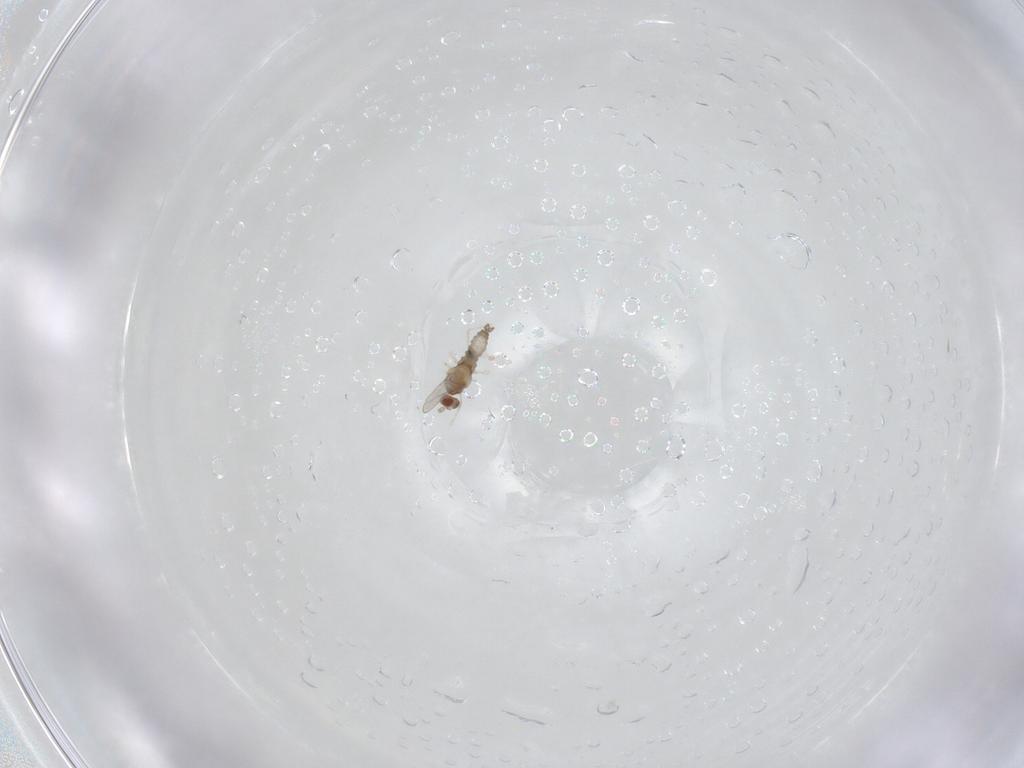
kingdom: Animalia
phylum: Arthropoda
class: Insecta
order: Diptera
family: Cecidomyiidae
